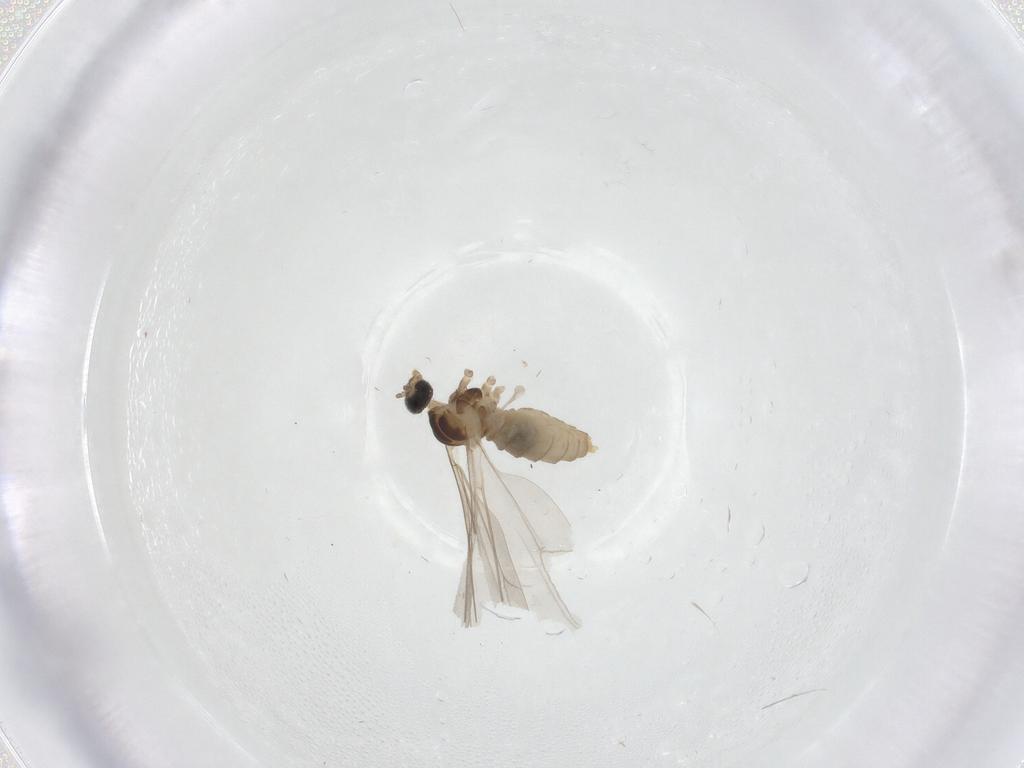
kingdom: Animalia
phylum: Arthropoda
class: Insecta
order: Diptera
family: Cecidomyiidae
